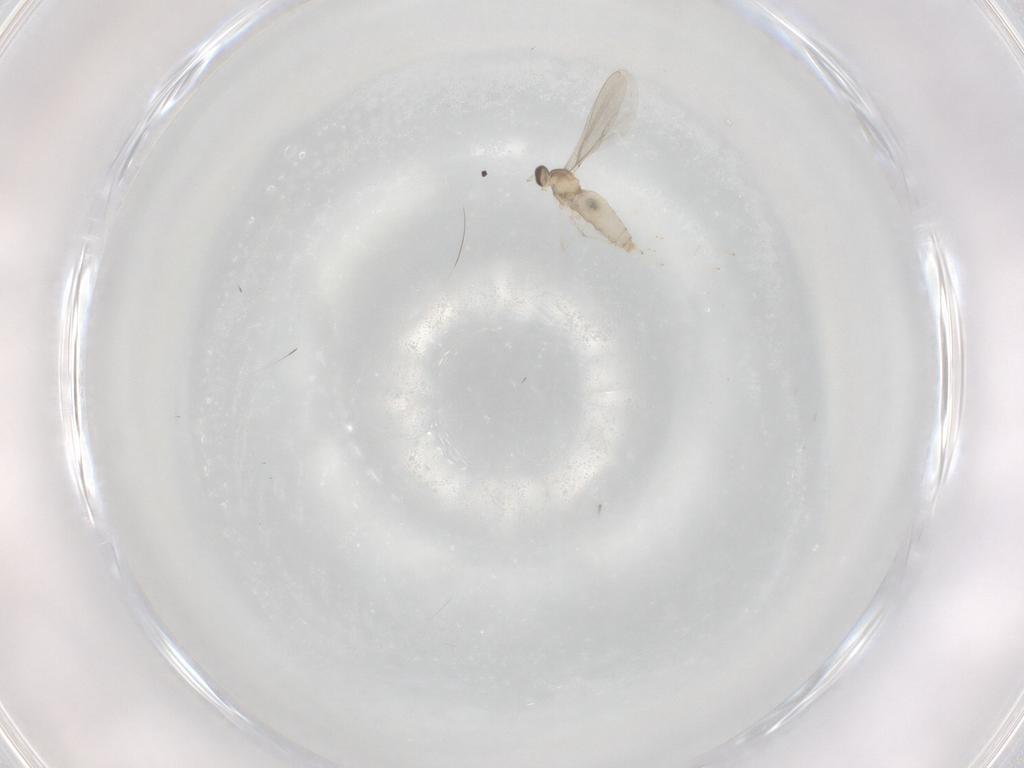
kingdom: Animalia
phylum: Arthropoda
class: Insecta
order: Diptera
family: Cecidomyiidae
